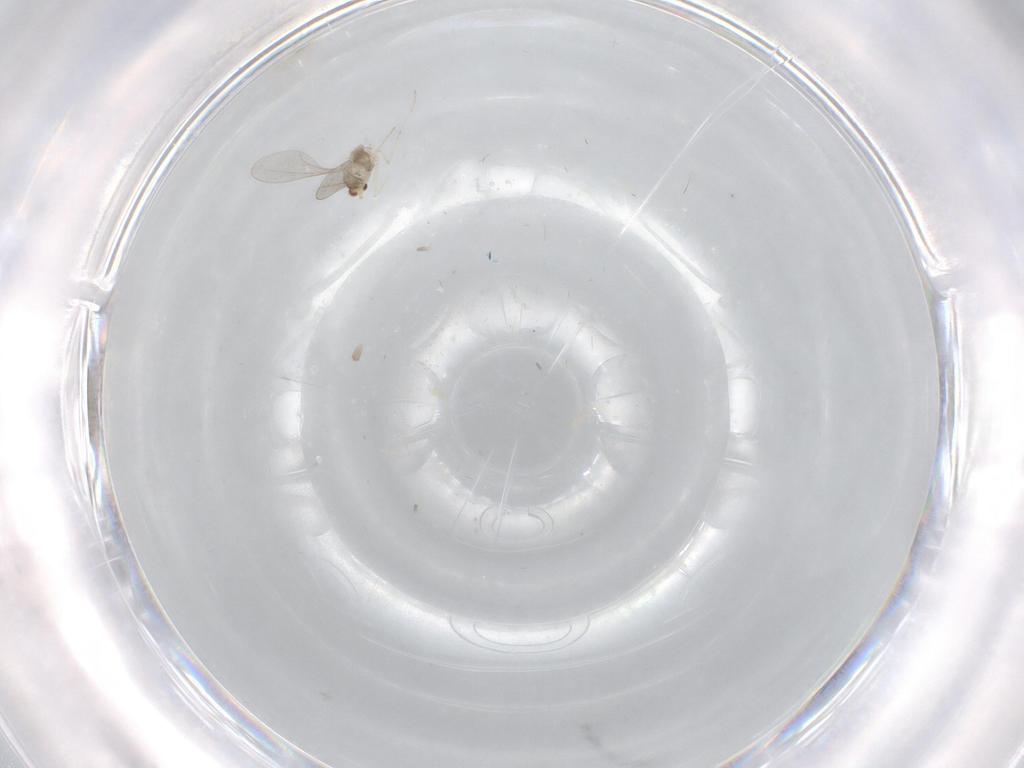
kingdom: Animalia
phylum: Arthropoda
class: Insecta
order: Diptera
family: Cecidomyiidae
